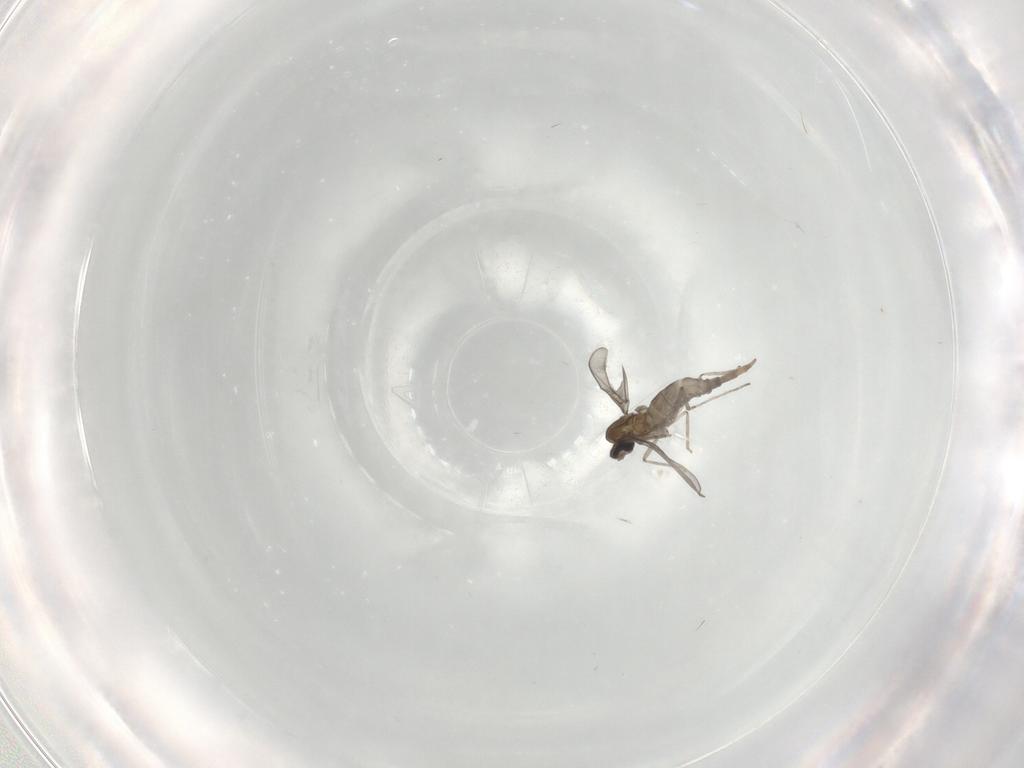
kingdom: Animalia
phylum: Arthropoda
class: Insecta
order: Diptera
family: Cecidomyiidae
